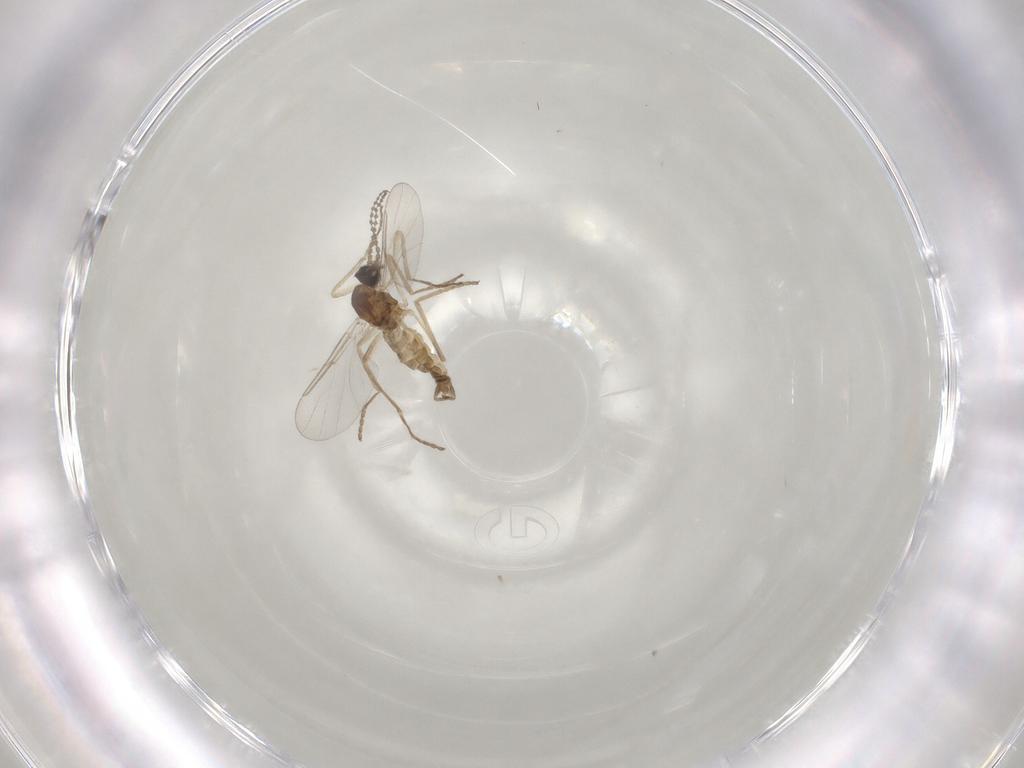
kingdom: Animalia
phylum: Arthropoda
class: Insecta
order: Diptera
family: Cecidomyiidae
